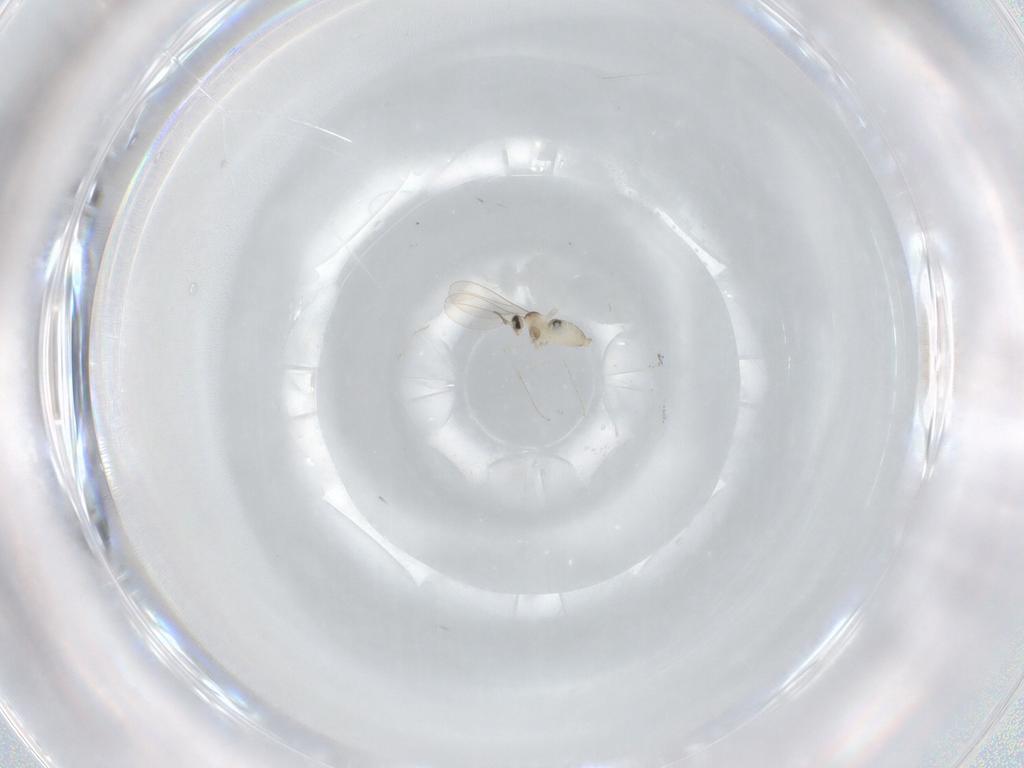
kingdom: Animalia
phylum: Arthropoda
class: Insecta
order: Diptera
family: Cecidomyiidae
